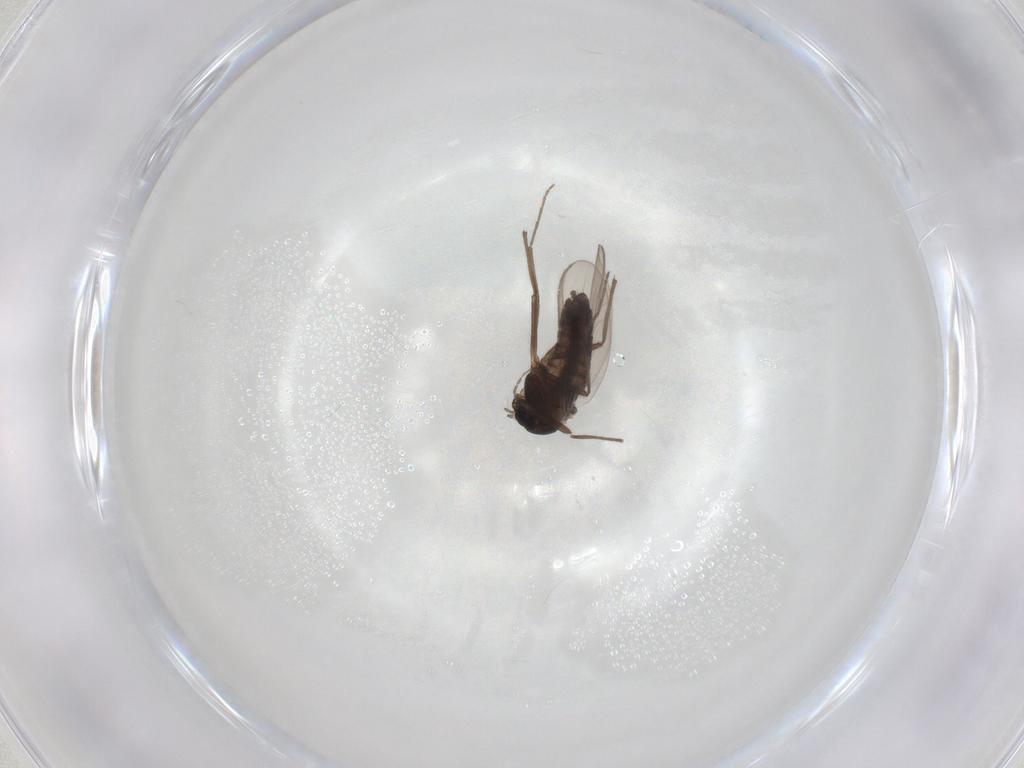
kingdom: Animalia
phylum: Arthropoda
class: Insecta
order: Diptera
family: Chironomidae
